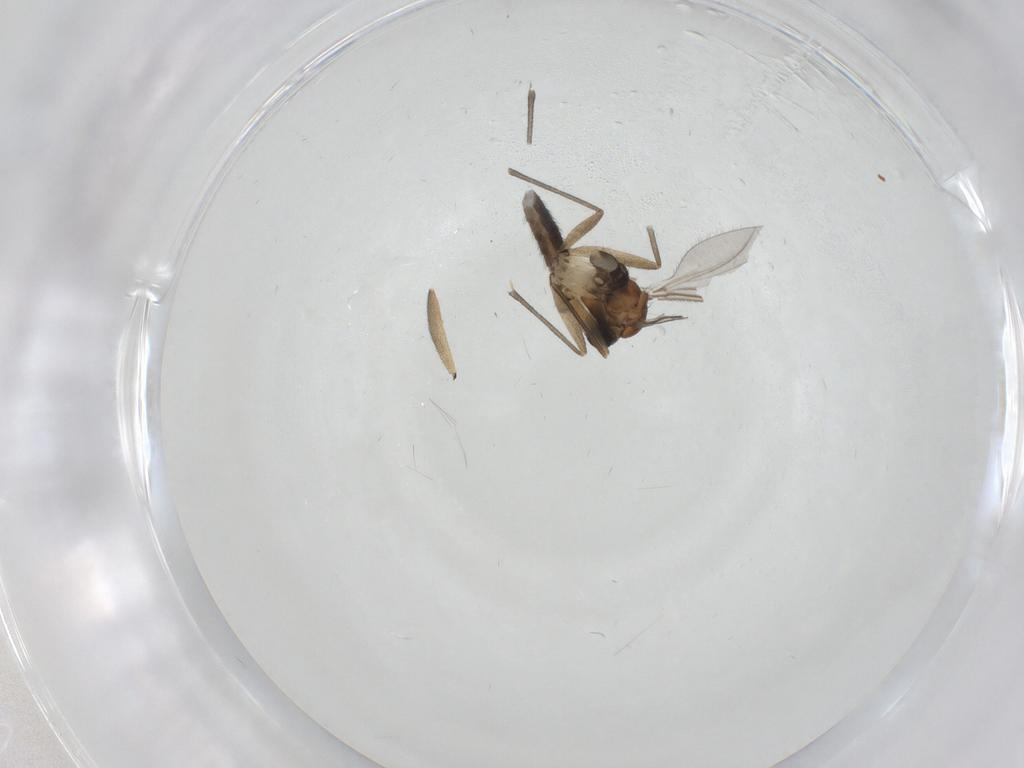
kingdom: Animalia
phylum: Arthropoda
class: Insecta
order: Diptera
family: Sciaridae
